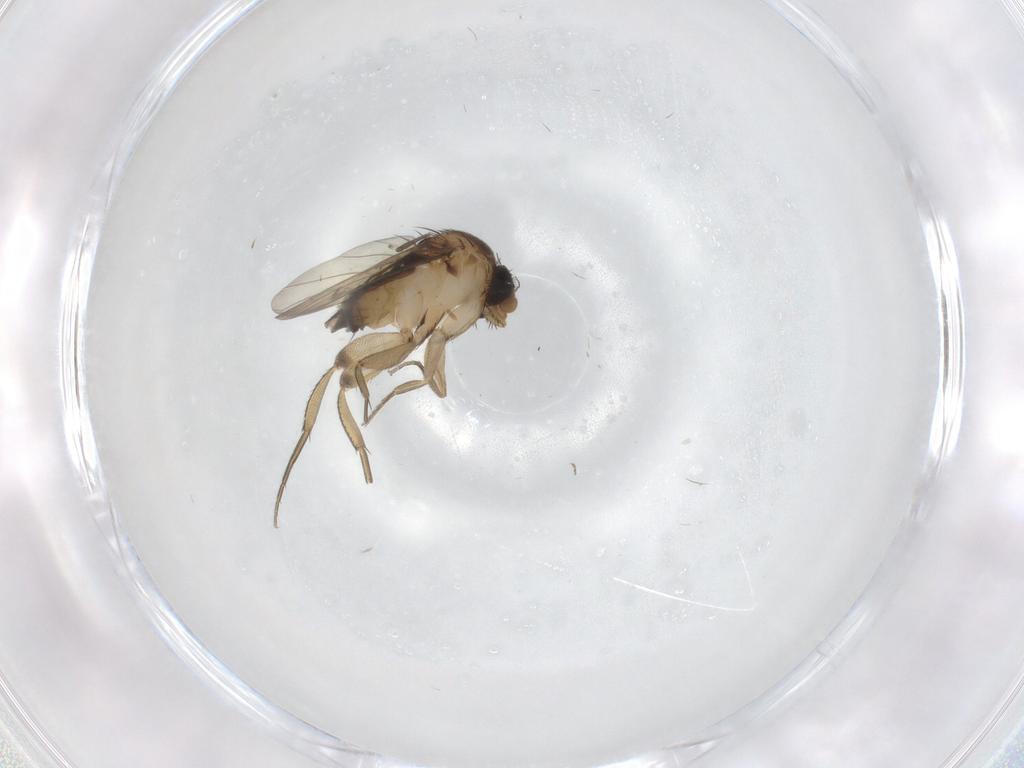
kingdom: Animalia
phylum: Arthropoda
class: Insecta
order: Diptera
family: Phoridae
